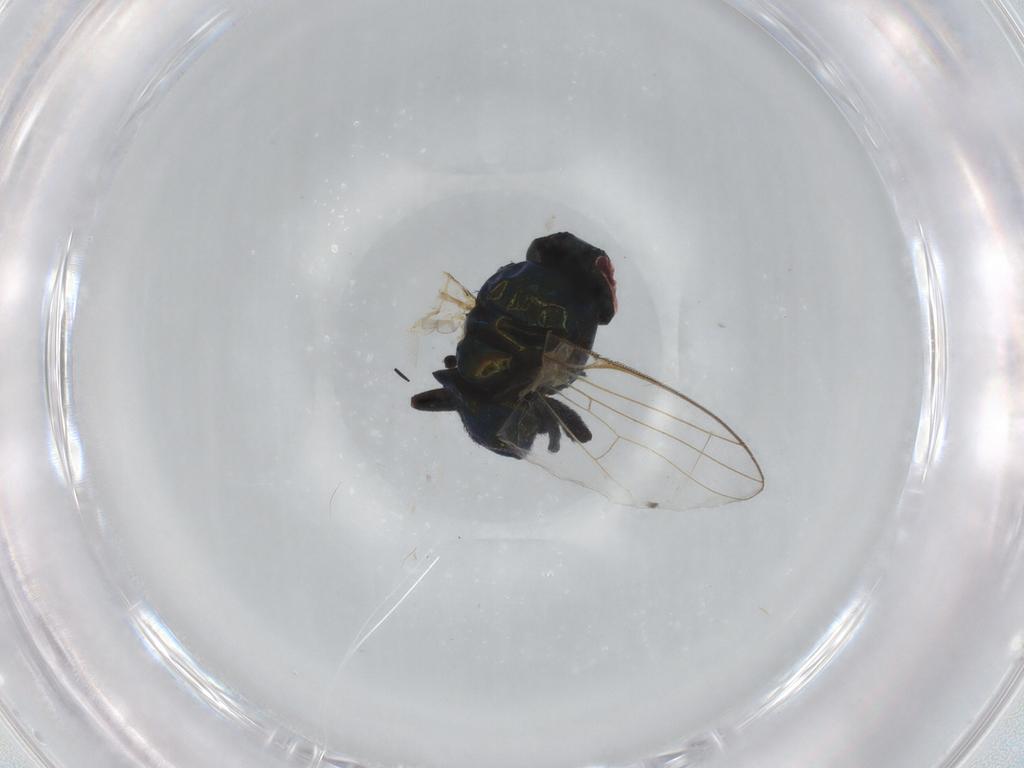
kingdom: Animalia
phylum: Arthropoda
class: Insecta
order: Diptera
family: Agromyzidae
